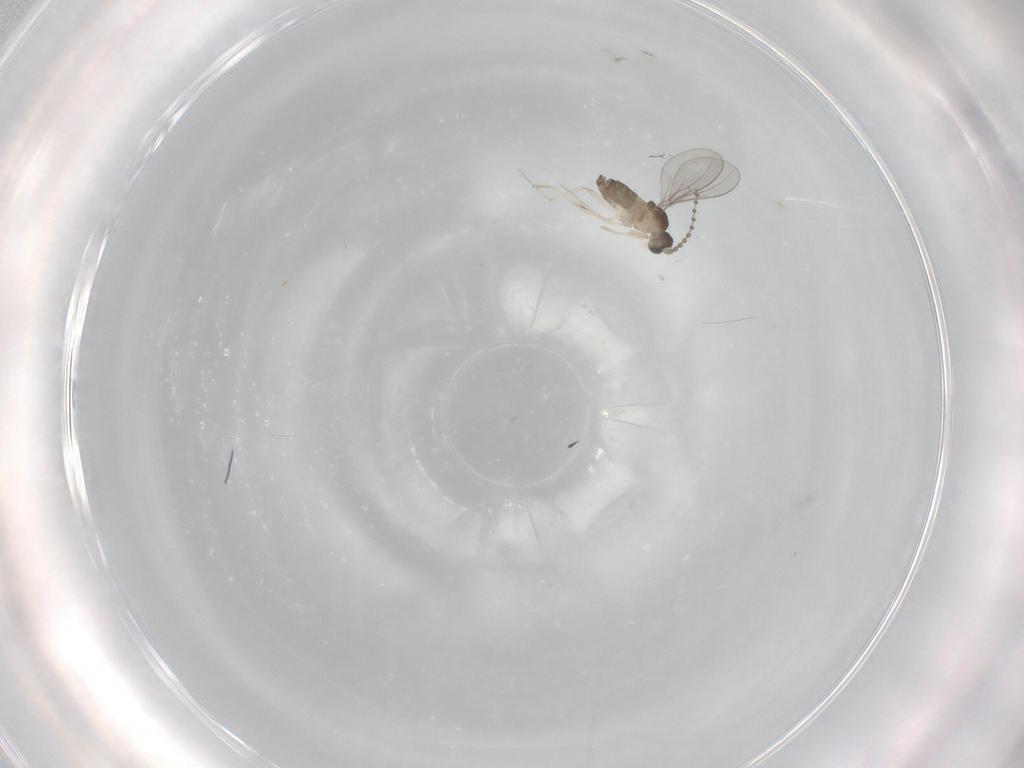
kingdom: Animalia
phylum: Arthropoda
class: Insecta
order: Diptera
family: Cecidomyiidae
